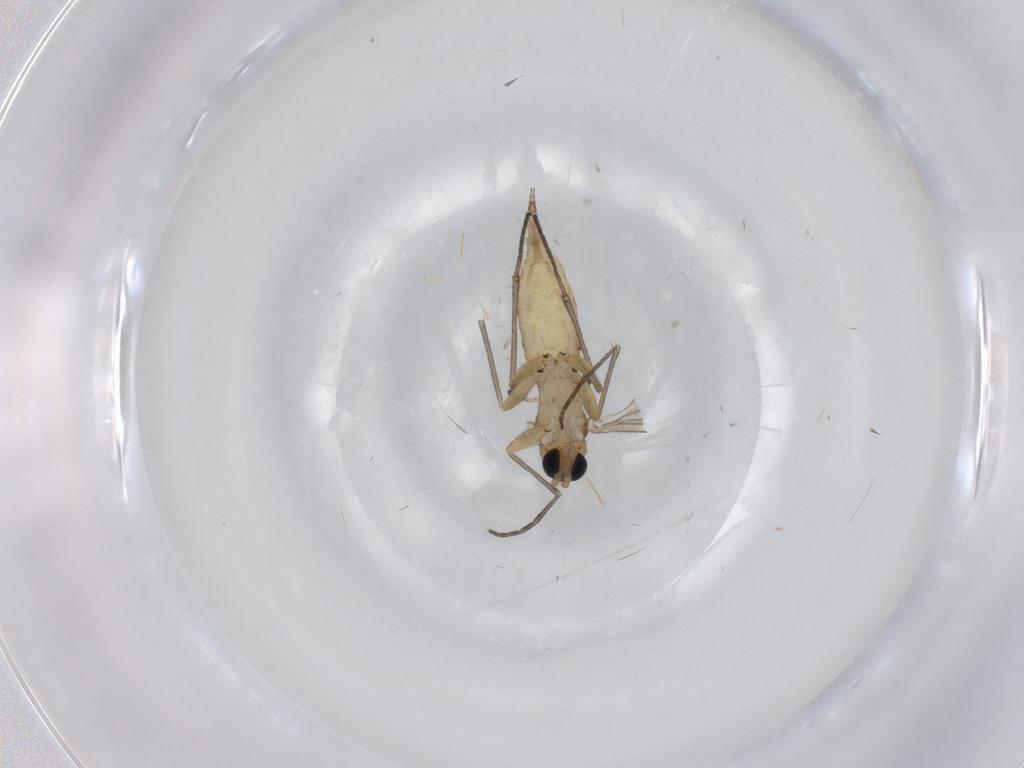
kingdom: Animalia
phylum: Arthropoda
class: Insecta
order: Diptera
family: Sciaridae
